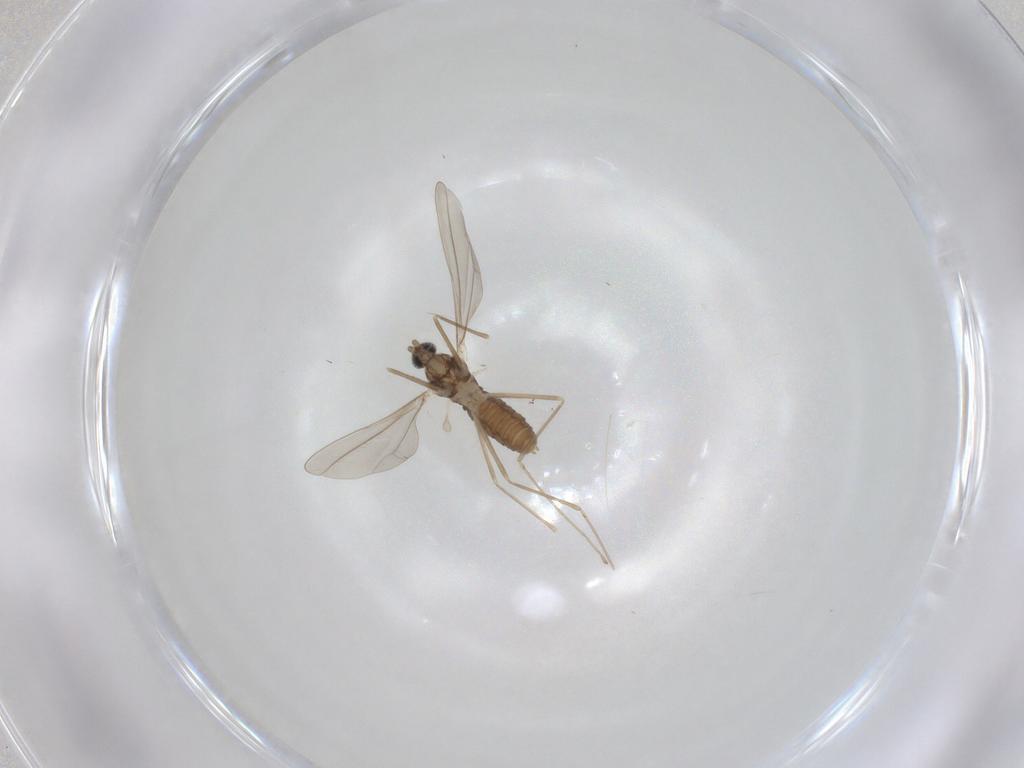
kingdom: Animalia
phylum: Arthropoda
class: Insecta
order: Diptera
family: Cecidomyiidae
